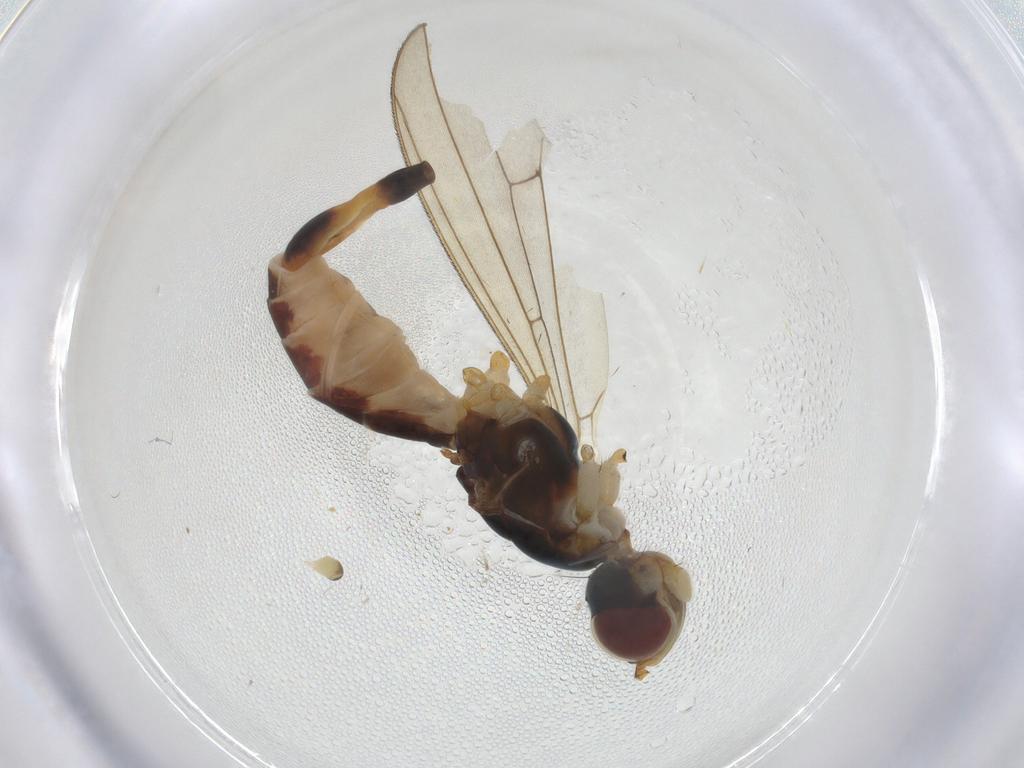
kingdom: Animalia
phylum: Arthropoda
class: Insecta
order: Diptera
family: Micropezidae
